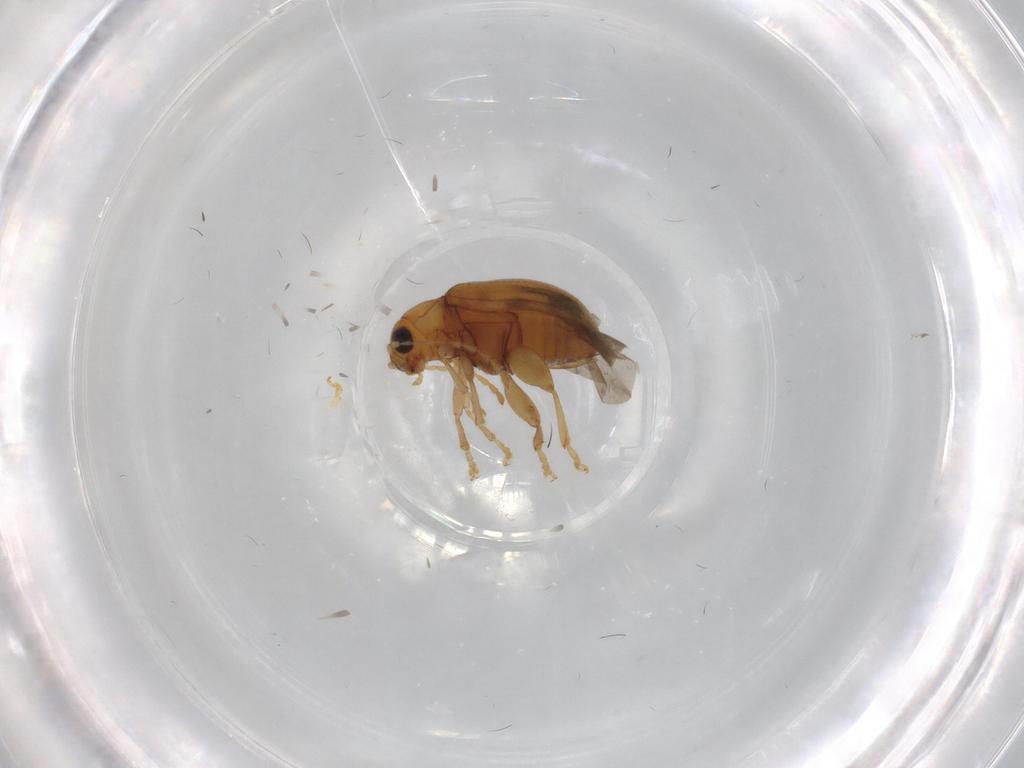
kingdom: Animalia
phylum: Arthropoda
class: Insecta
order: Coleoptera
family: Chrysomelidae
